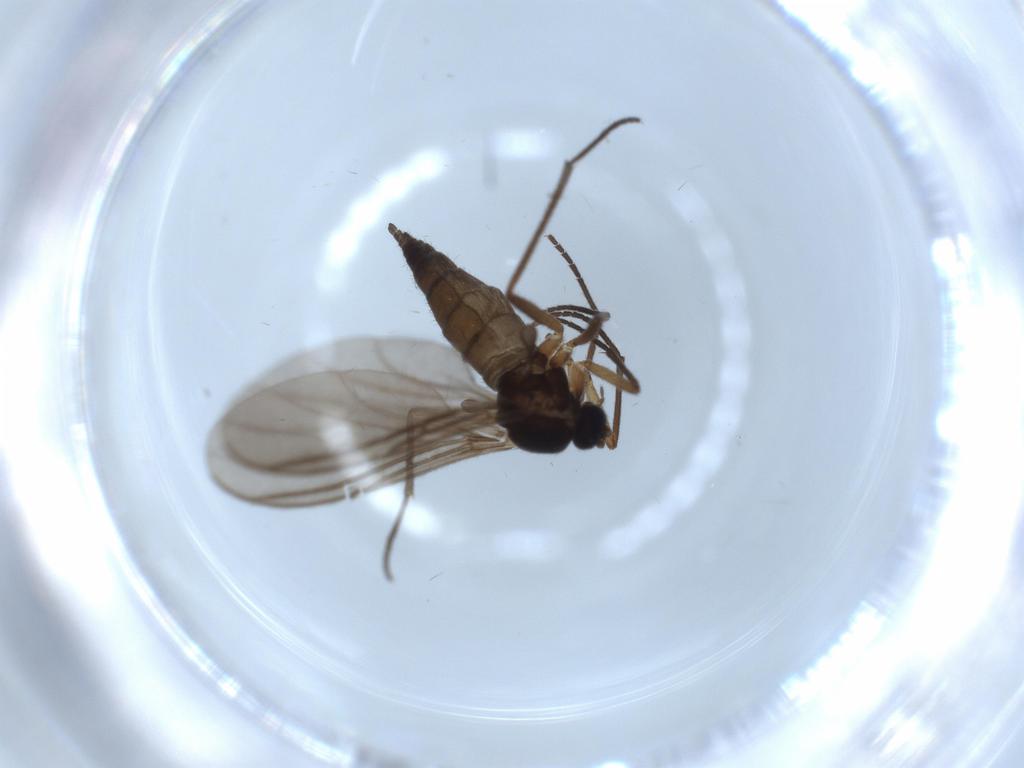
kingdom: Animalia
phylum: Arthropoda
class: Insecta
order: Diptera
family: Sciaridae
